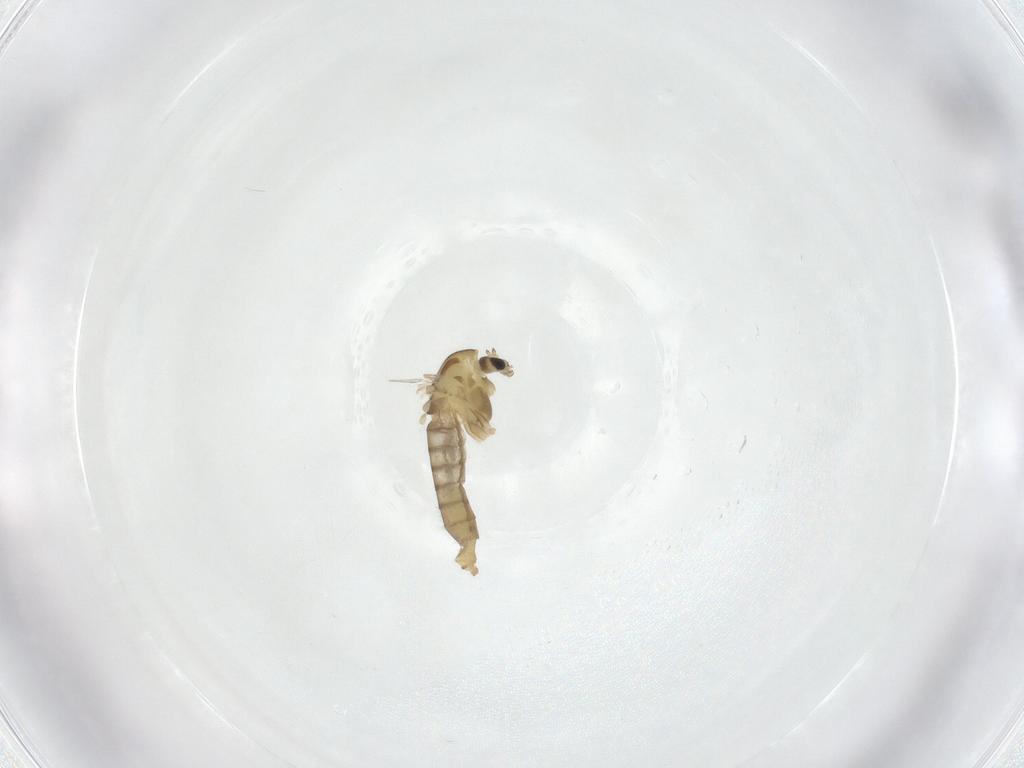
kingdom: Animalia
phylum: Arthropoda
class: Insecta
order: Diptera
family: Chironomidae
